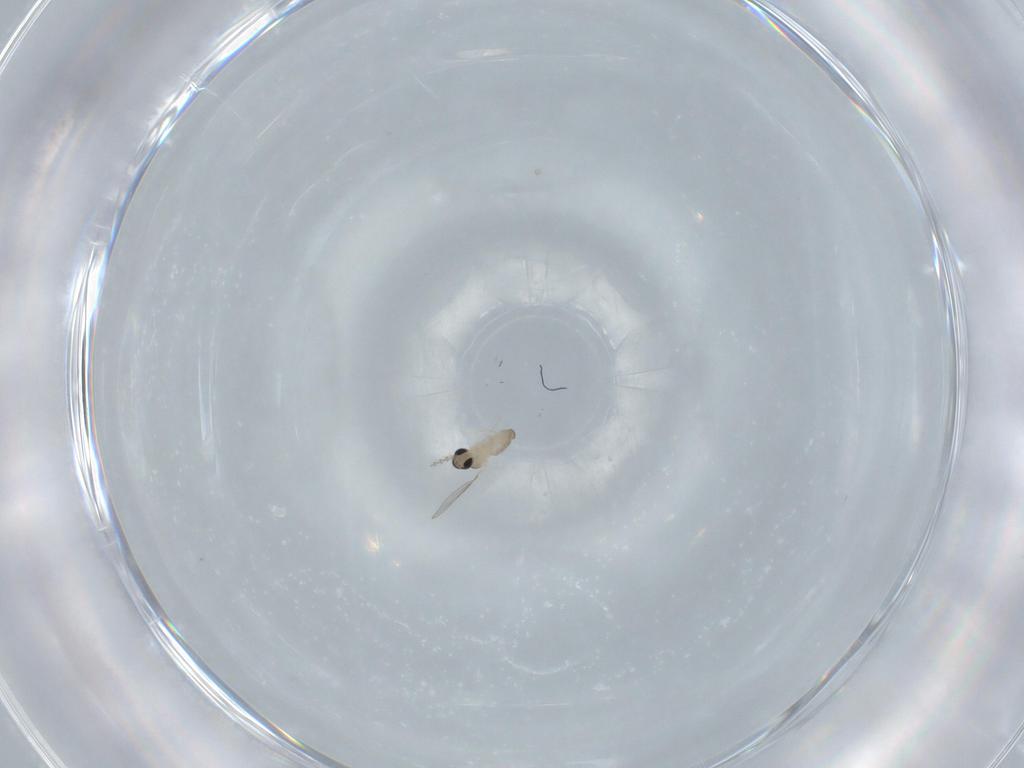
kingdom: Animalia
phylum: Arthropoda
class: Insecta
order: Diptera
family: Cecidomyiidae
